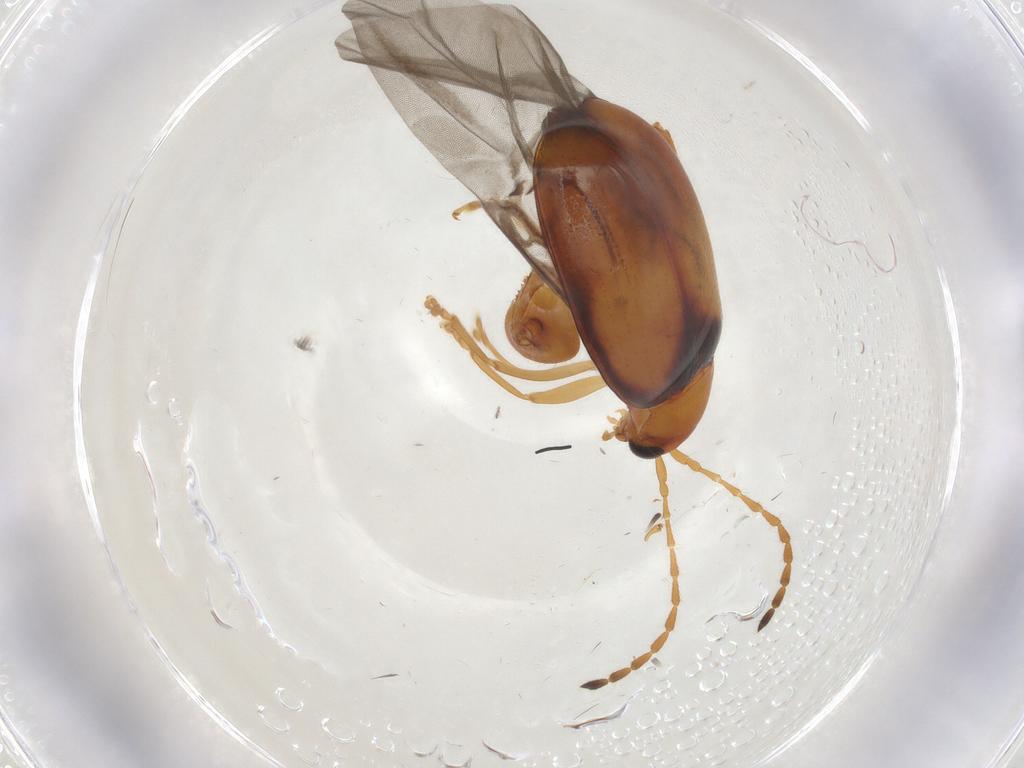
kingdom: Animalia
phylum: Arthropoda
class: Insecta
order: Coleoptera
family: Chrysomelidae
